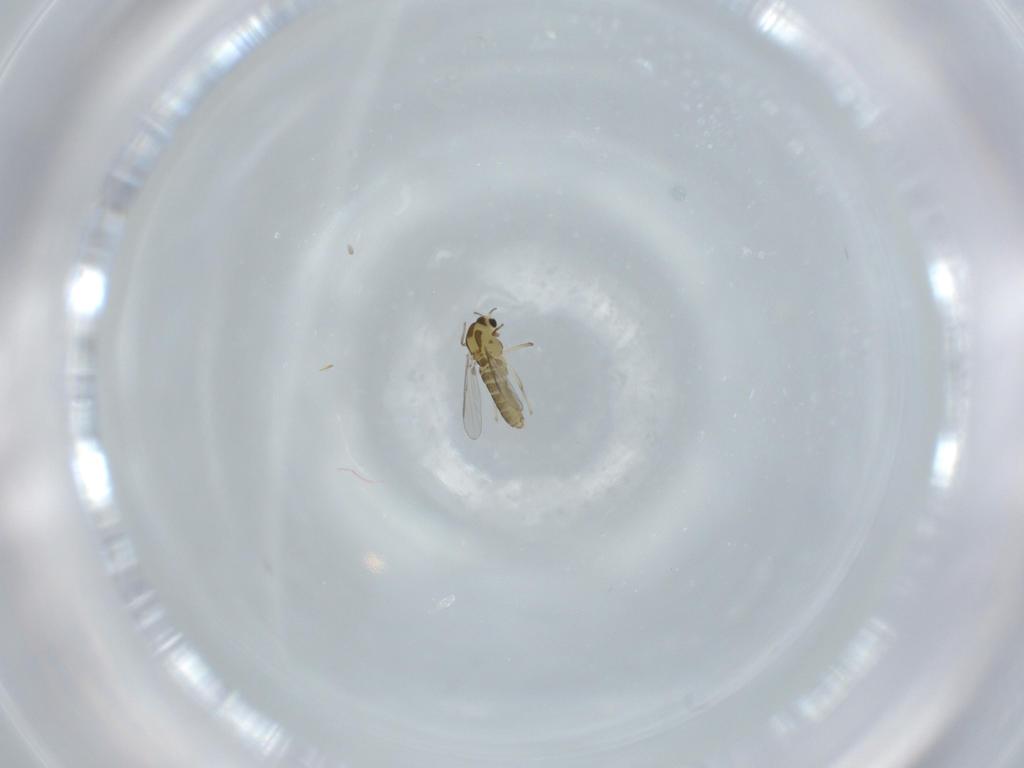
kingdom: Animalia
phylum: Arthropoda
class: Insecta
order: Diptera
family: Chironomidae
